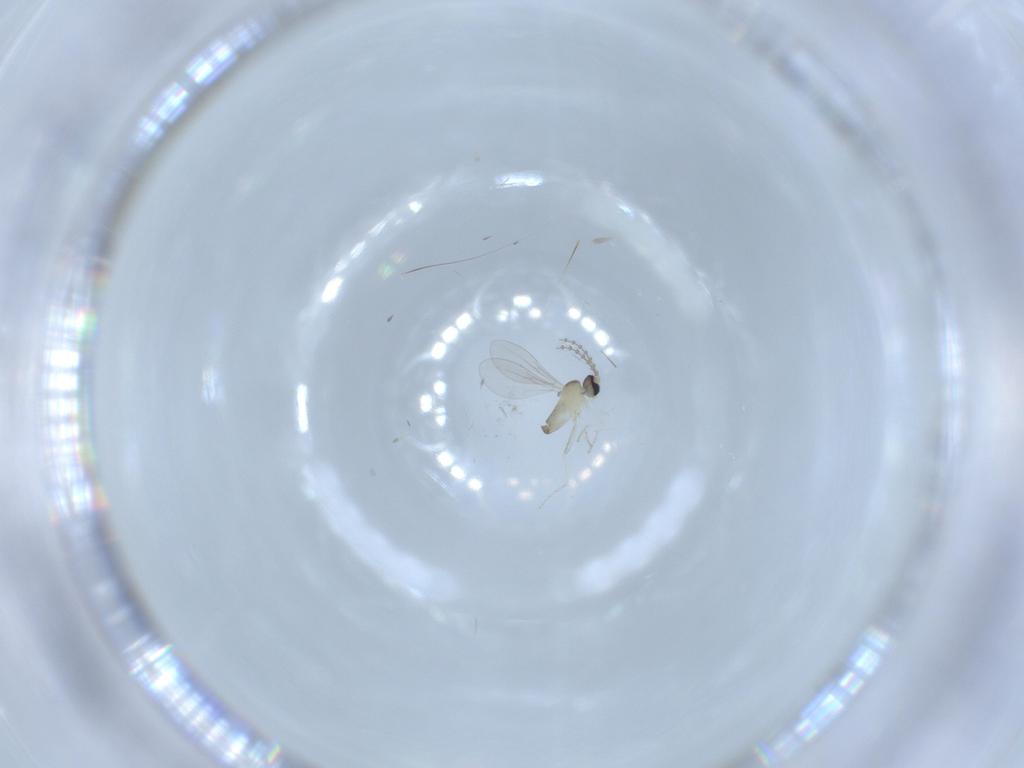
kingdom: Animalia
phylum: Arthropoda
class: Insecta
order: Diptera
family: Cecidomyiidae
